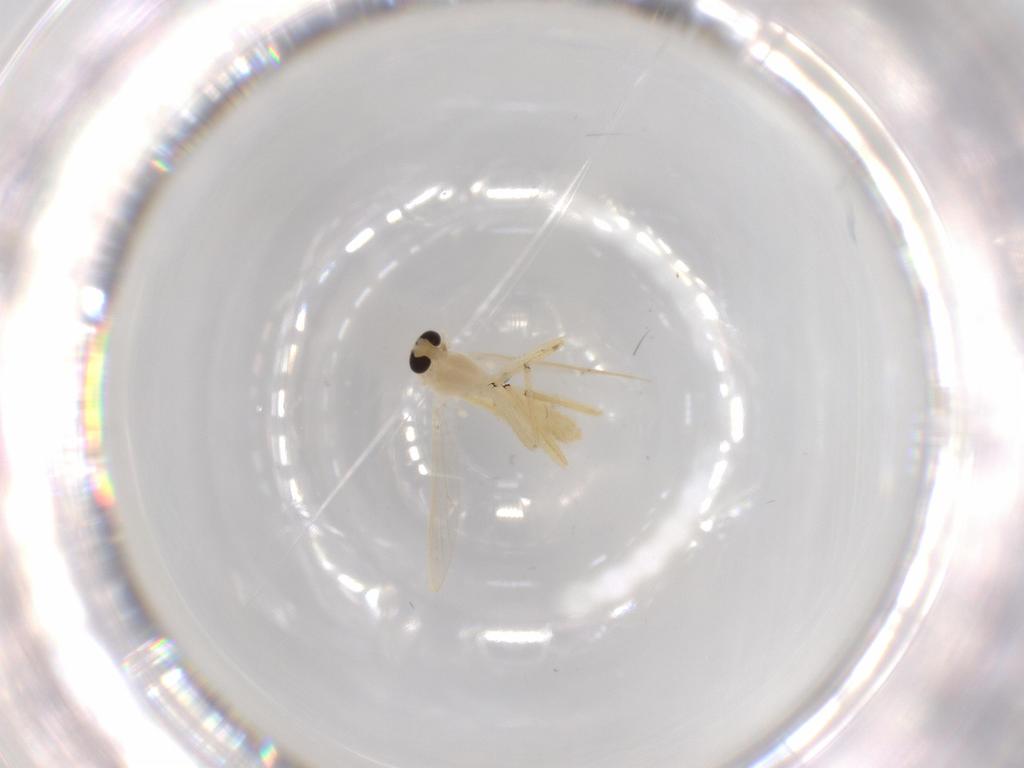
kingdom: Animalia
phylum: Arthropoda
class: Insecta
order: Diptera
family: Chironomidae
